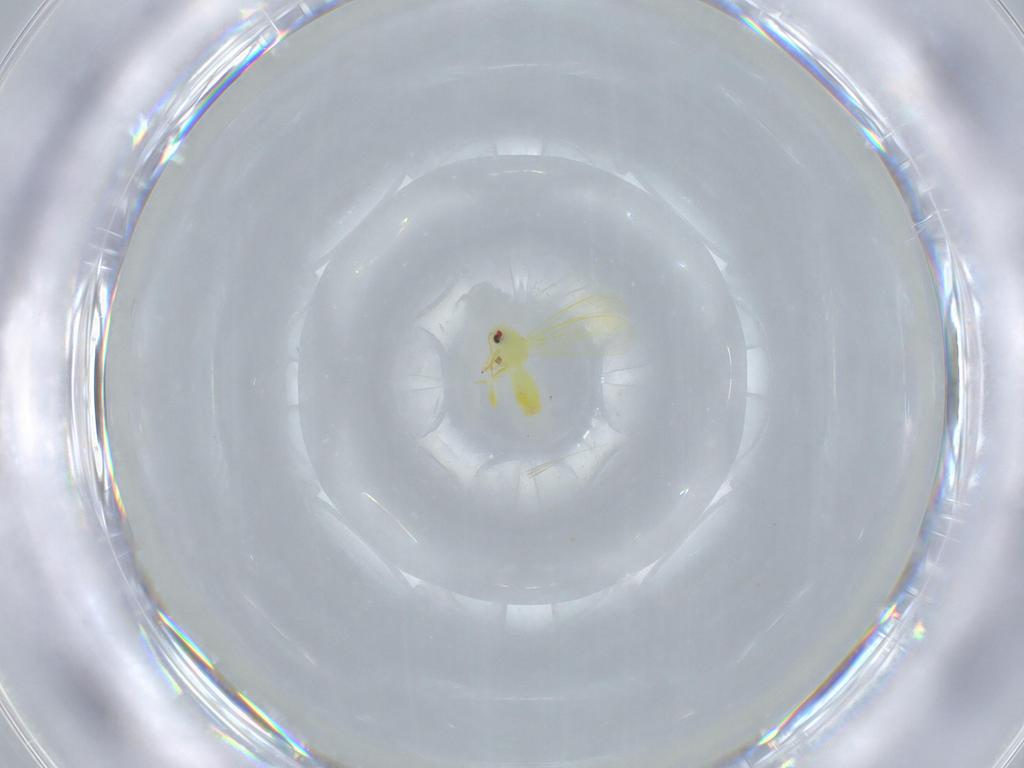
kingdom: Animalia
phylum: Arthropoda
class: Insecta
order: Hemiptera
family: Aleyrodidae
